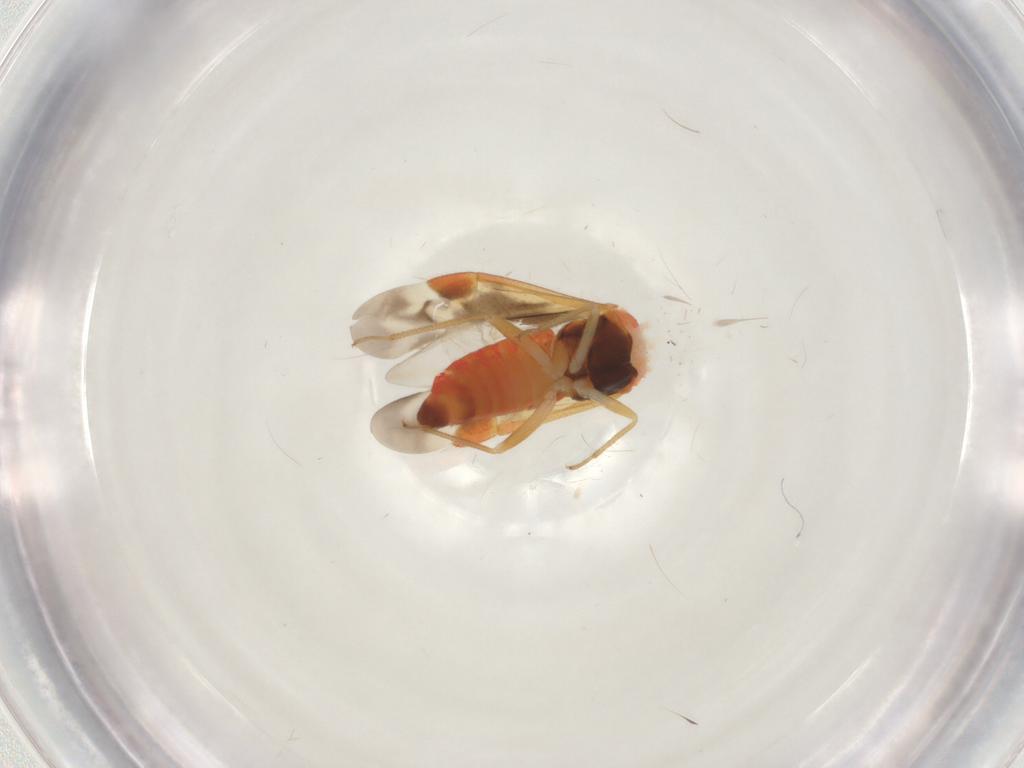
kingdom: Animalia
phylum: Arthropoda
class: Insecta
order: Hemiptera
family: Miridae
